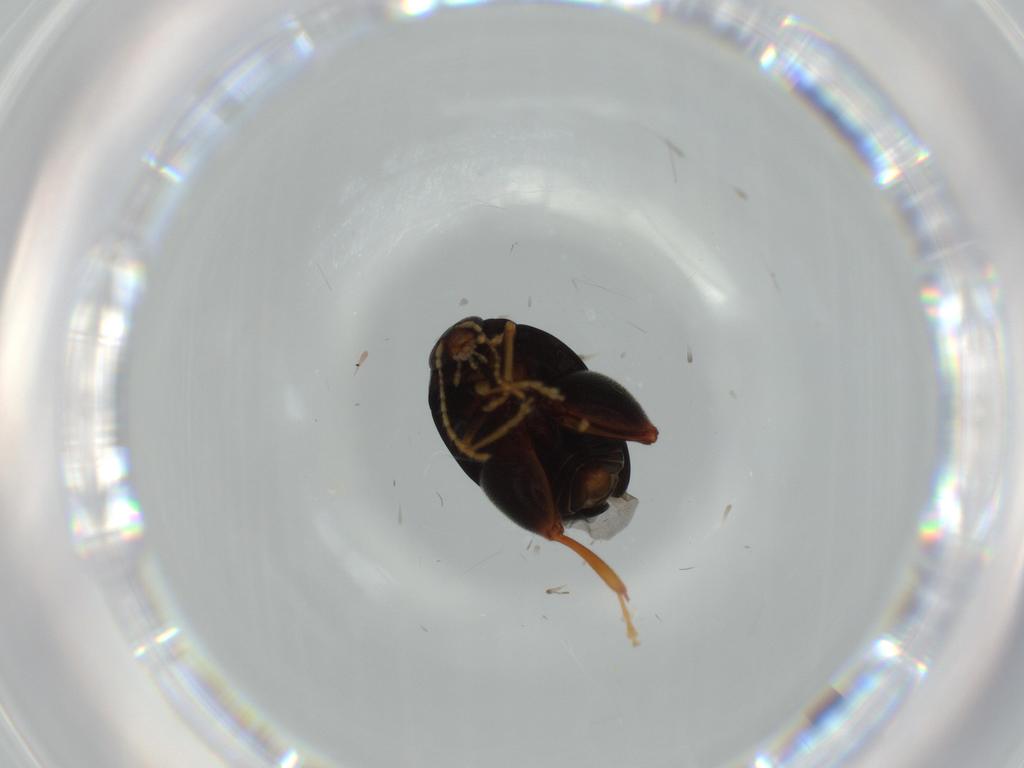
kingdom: Animalia
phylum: Arthropoda
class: Insecta
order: Coleoptera
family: Chrysomelidae
